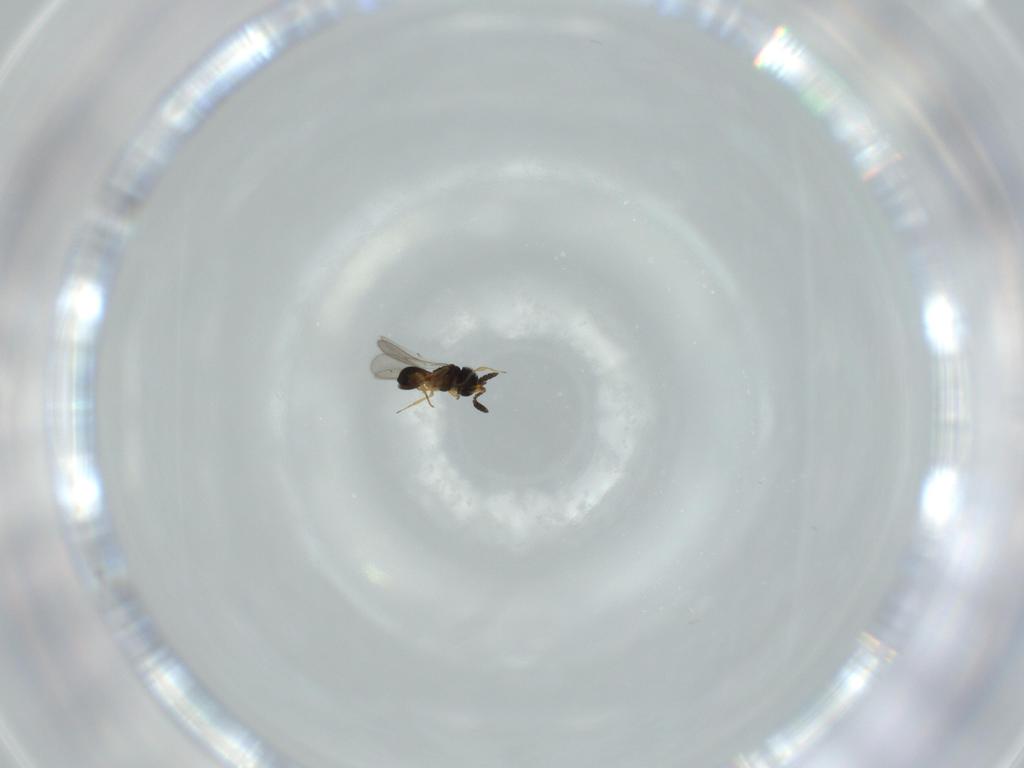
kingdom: Animalia
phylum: Arthropoda
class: Insecta
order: Hymenoptera
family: Scelionidae
